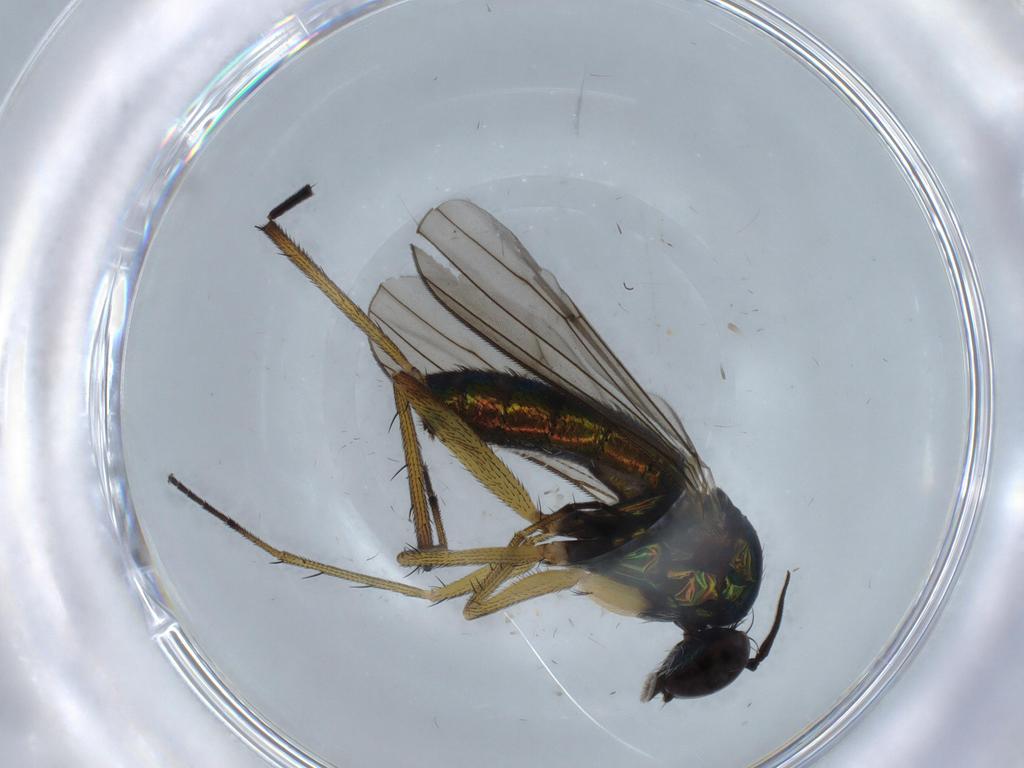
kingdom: Animalia
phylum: Arthropoda
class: Insecta
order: Diptera
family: Dolichopodidae
